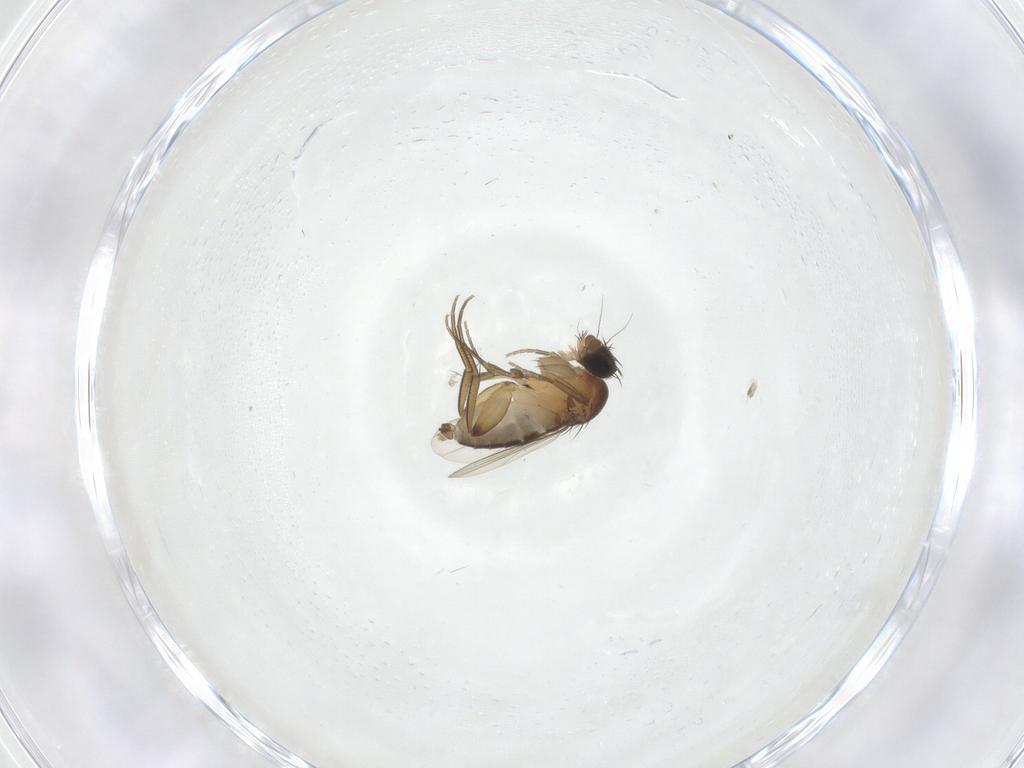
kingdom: Animalia
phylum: Arthropoda
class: Insecta
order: Diptera
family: Phoridae
